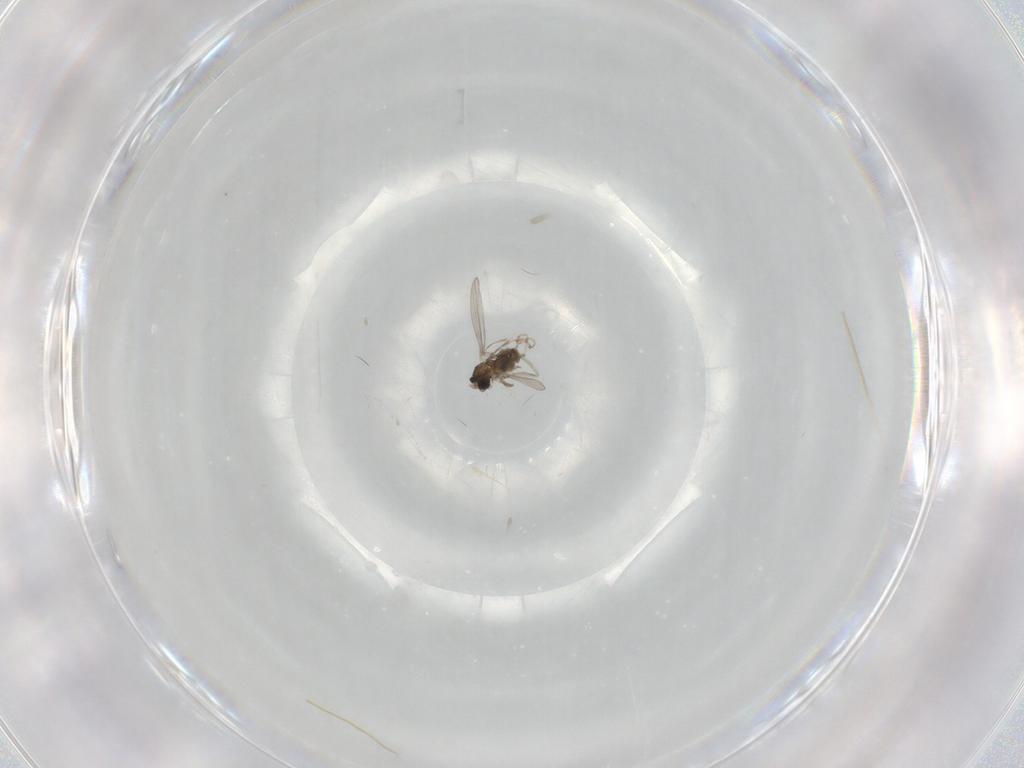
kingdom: Animalia
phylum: Arthropoda
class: Insecta
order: Diptera
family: Cecidomyiidae
